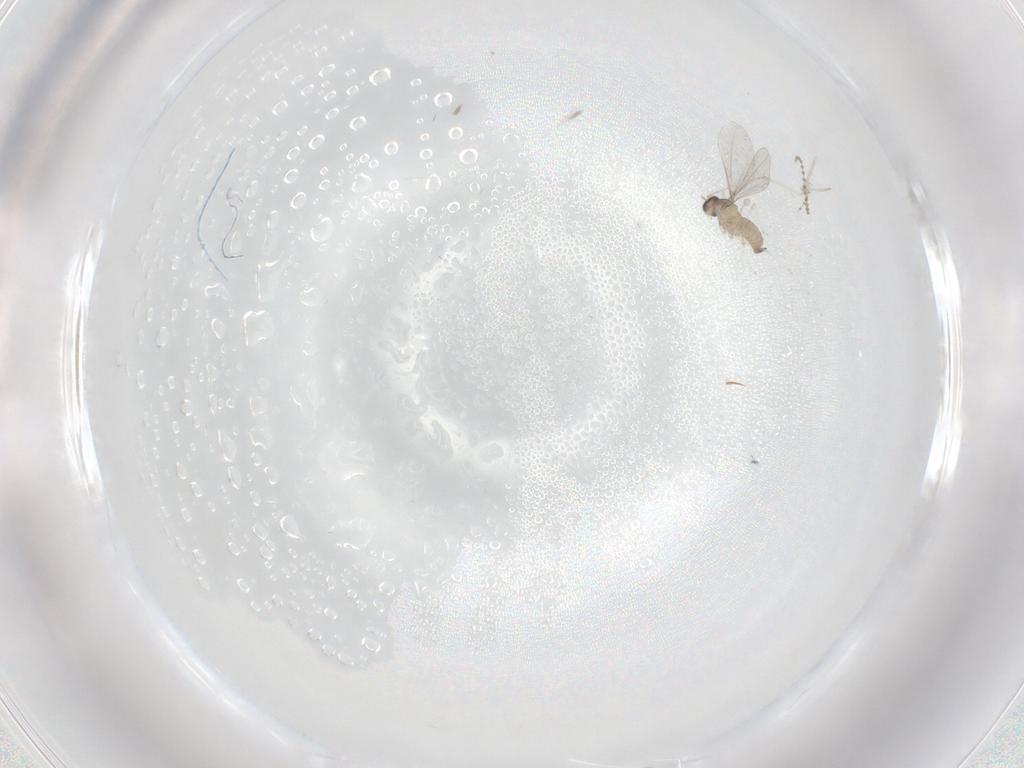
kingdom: Animalia
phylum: Arthropoda
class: Insecta
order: Diptera
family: Cecidomyiidae
